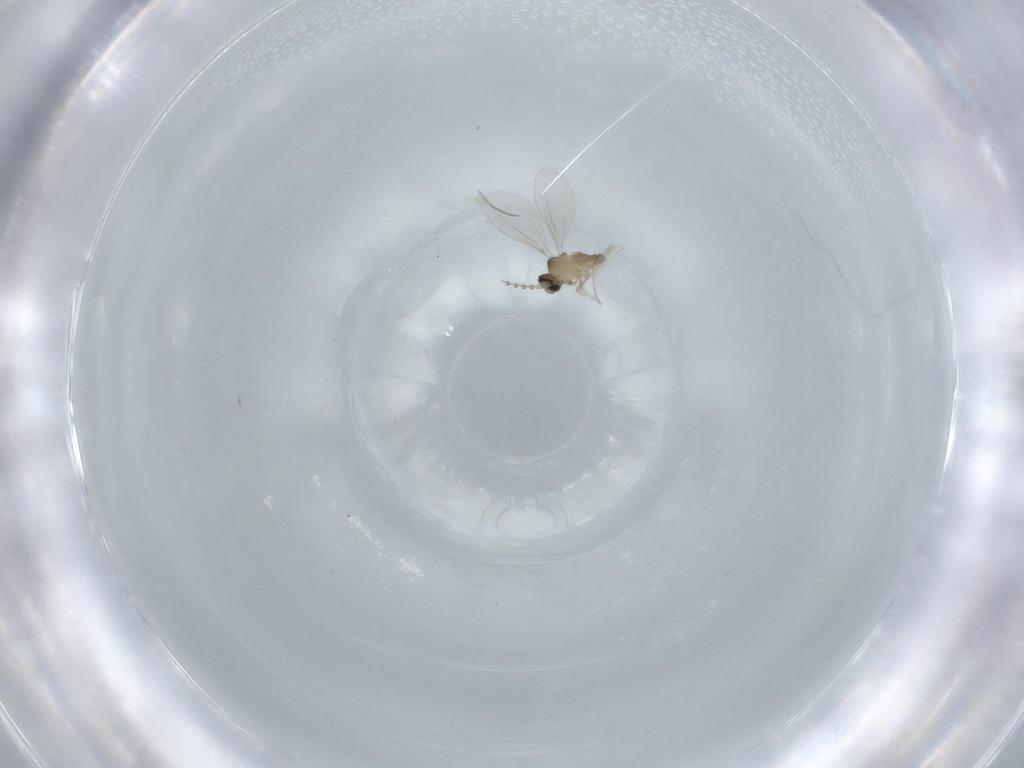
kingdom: Animalia
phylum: Arthropoda
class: Insecta
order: Diptera
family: Cecidomyiidae
